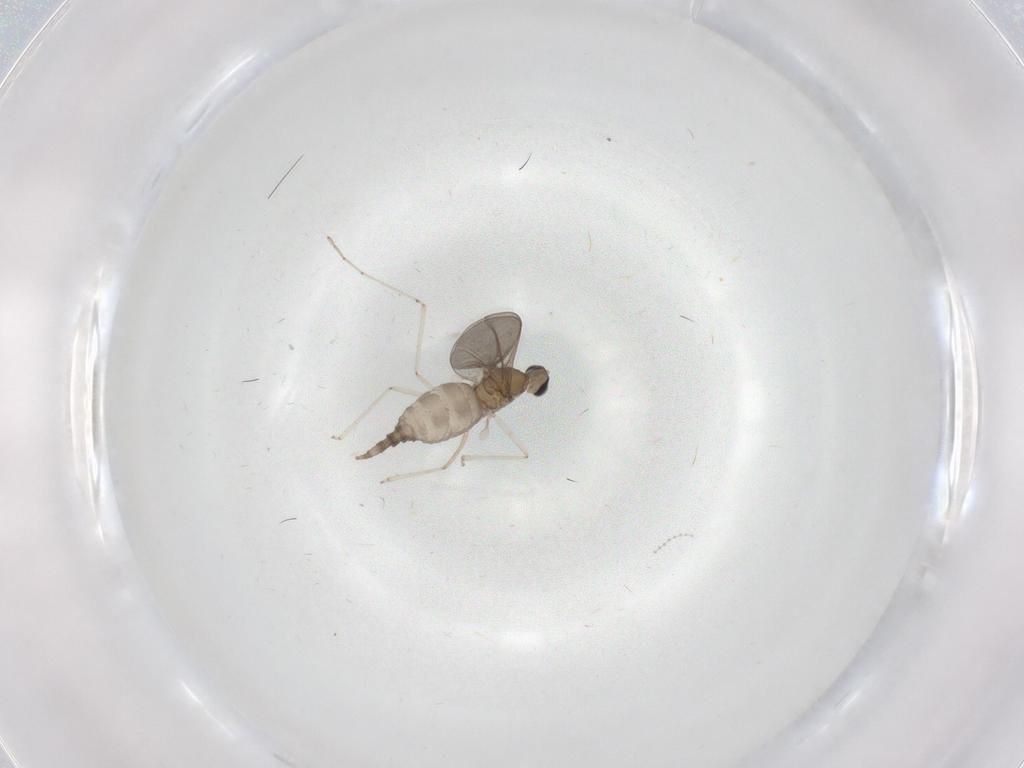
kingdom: Animalia
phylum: Arthropoda
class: Insecta
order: Diptera
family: Cecidomyiidae
